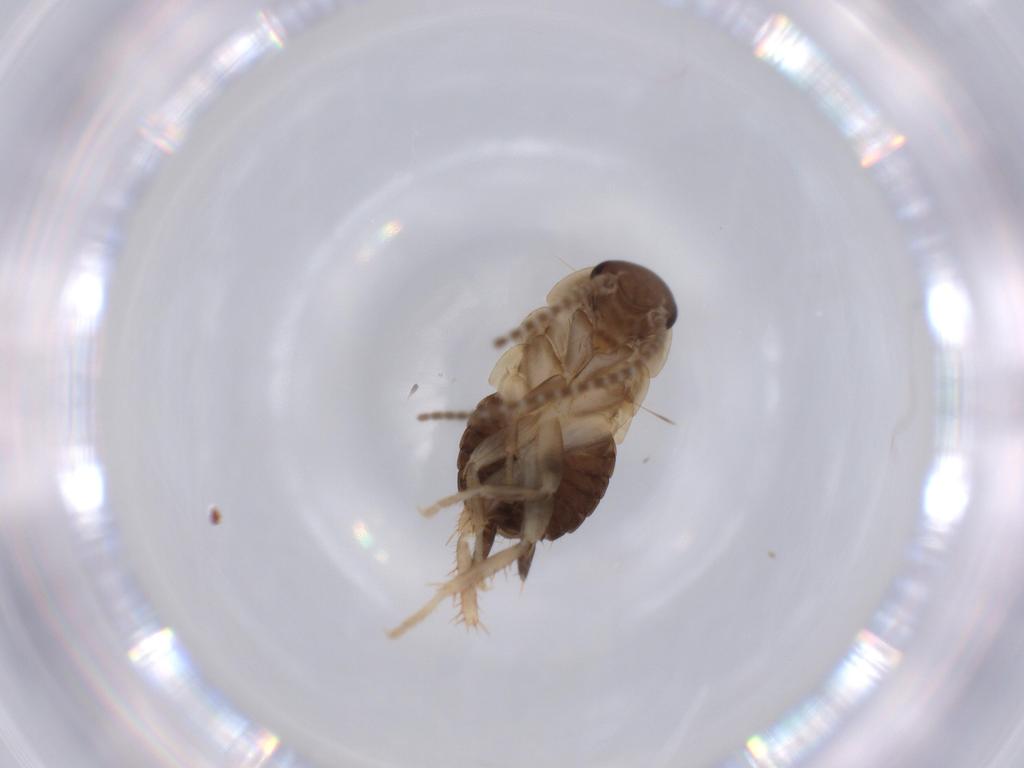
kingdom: Animalia
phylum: Arthropoda
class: Insecta
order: Blattodea
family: Ectobiidae
